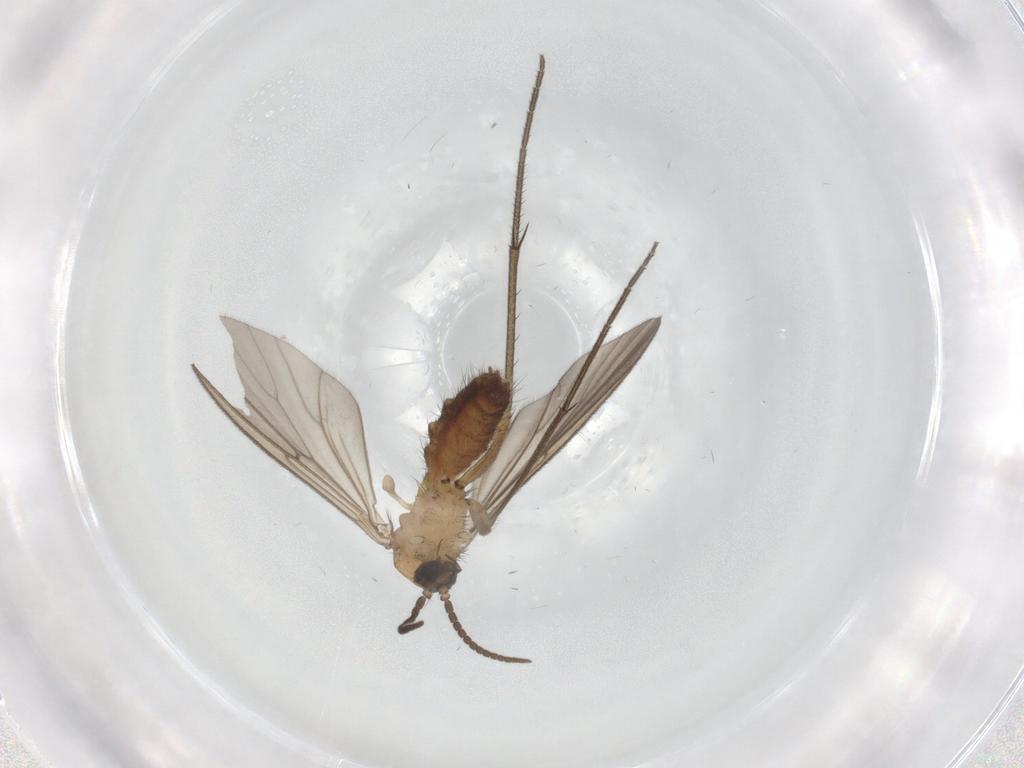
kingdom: Animalia
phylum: Arthropoda
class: Insecta
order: Diptera
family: Psychodidae
